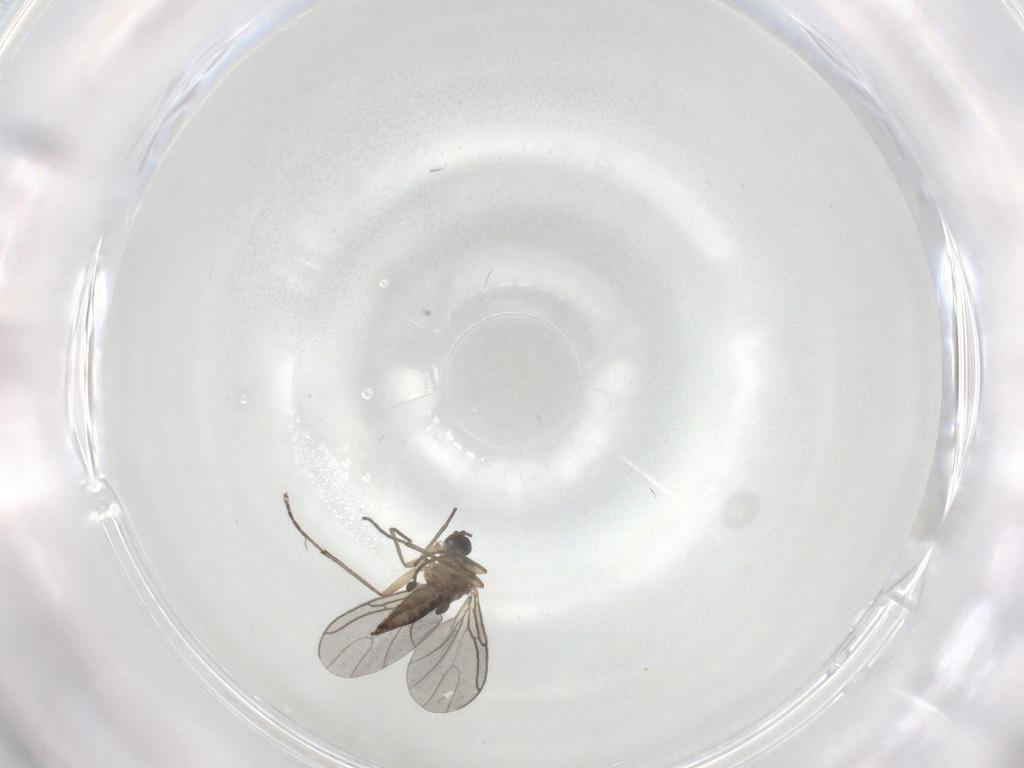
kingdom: Animalia
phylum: Arthropoda
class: Insecta
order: Diptera
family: Sciaridae
